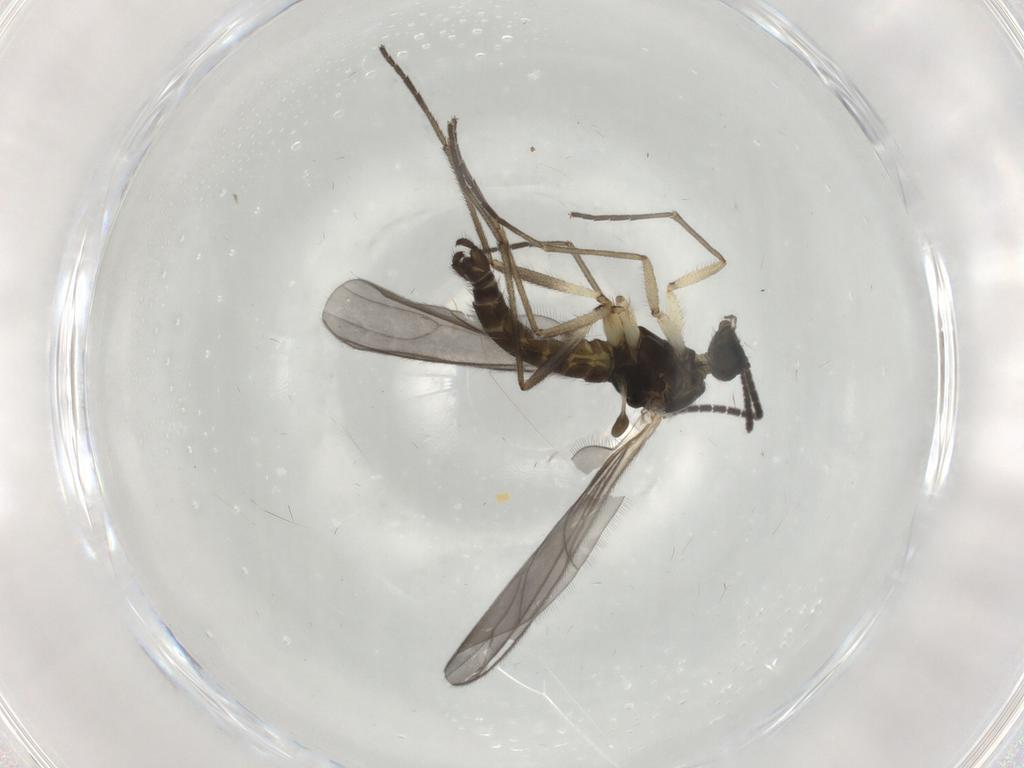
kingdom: Animalia
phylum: Arthropoda
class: Insecta
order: Diptera
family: Sciaridae
